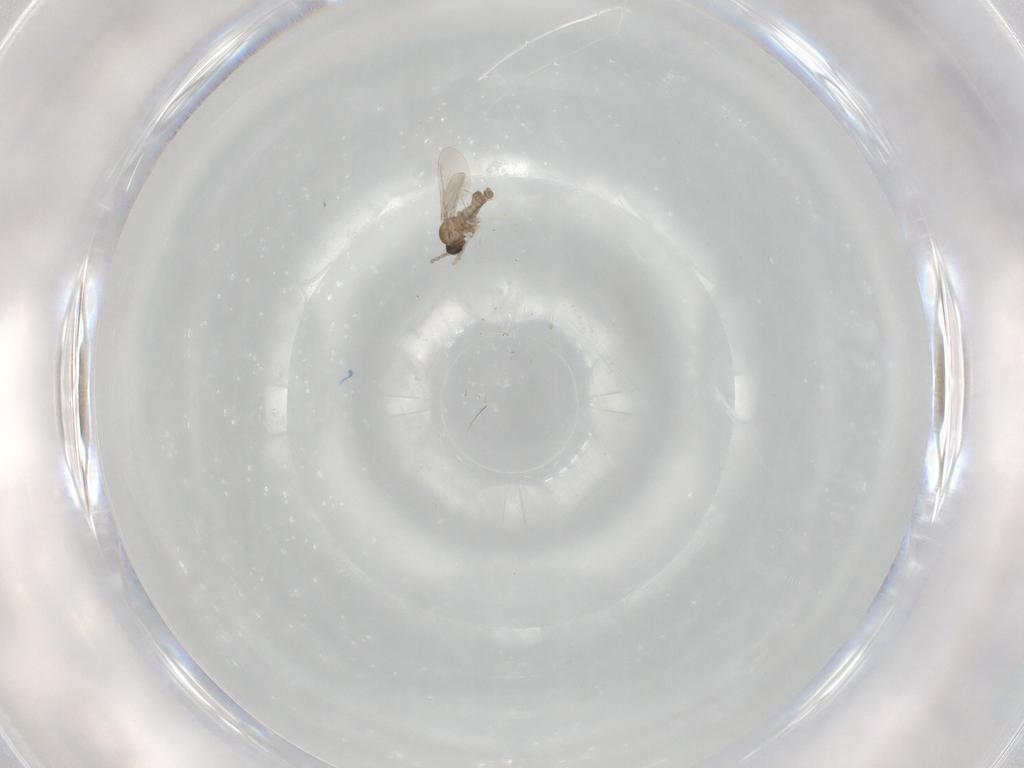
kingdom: Animalia
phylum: Arthropoda
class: Insecta
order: Diptera
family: Cecidomyiidae
